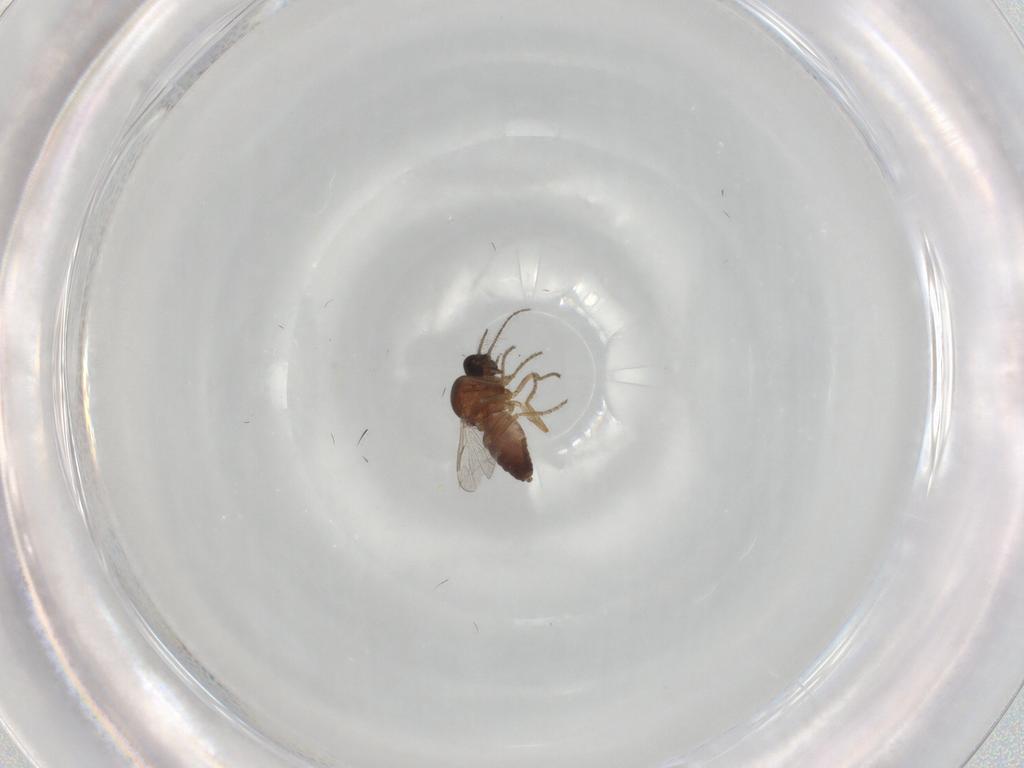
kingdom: Animalia
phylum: Arthropoda
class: Insecta
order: Diptera
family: Ceratopogonidae
